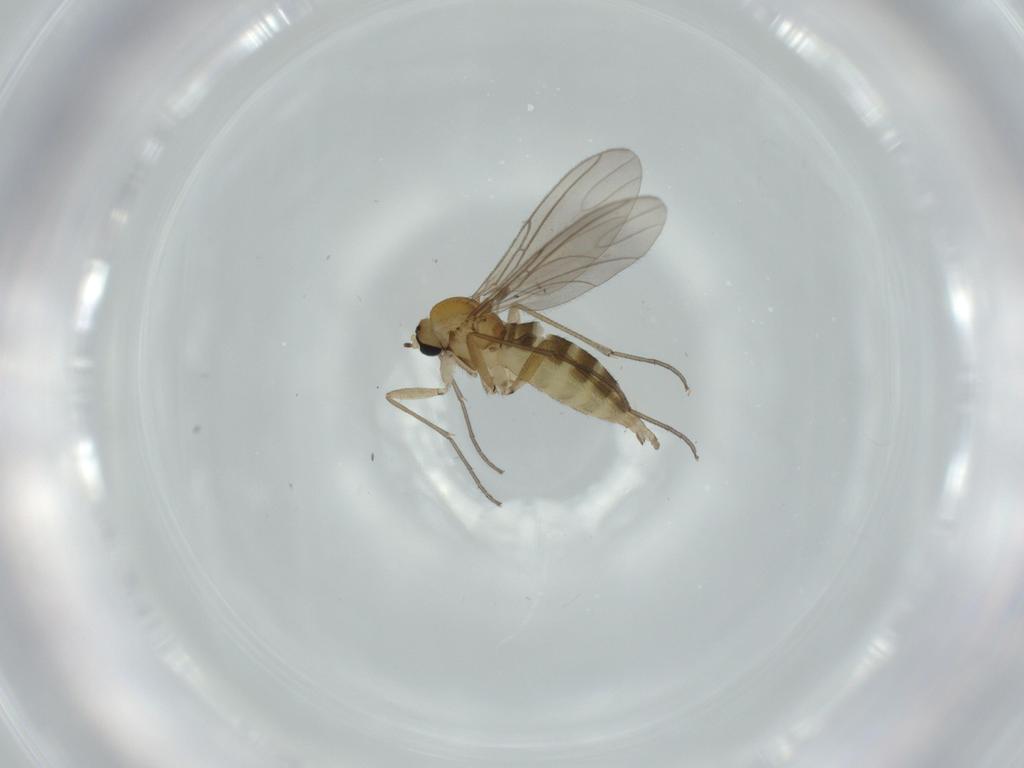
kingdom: Animalia
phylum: Arthropoda
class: Insecta
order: Diptera
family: Sciaridae
